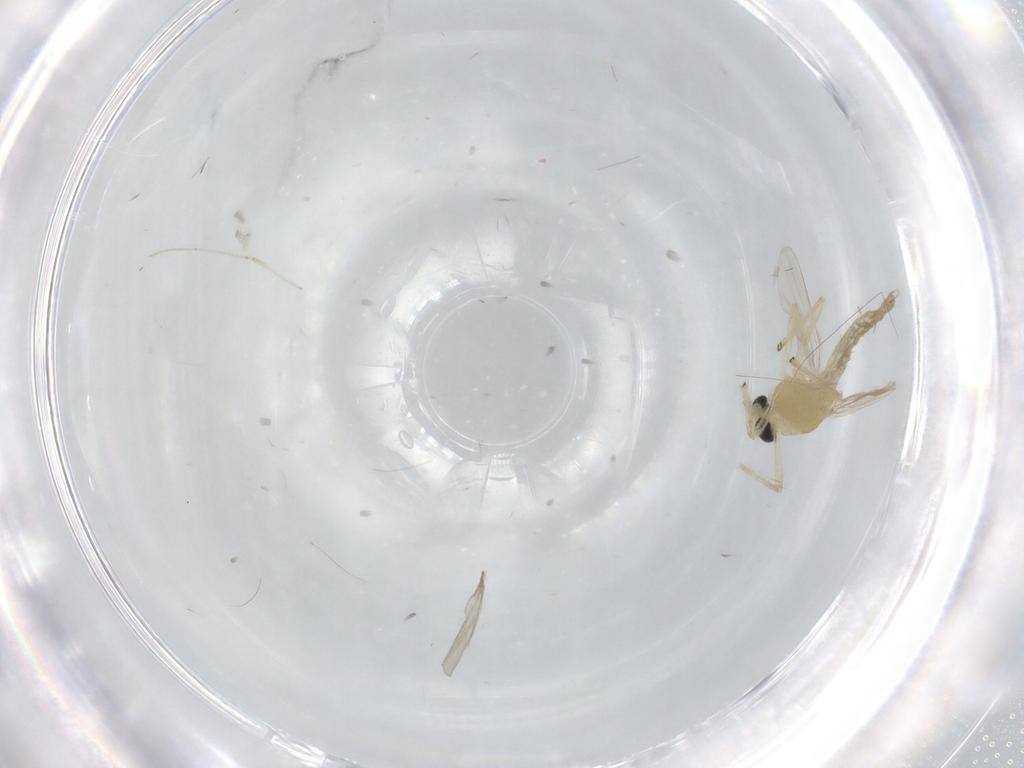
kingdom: Animalia
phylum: Arthropoda
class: Insecta
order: Diptera
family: Chironomidae
